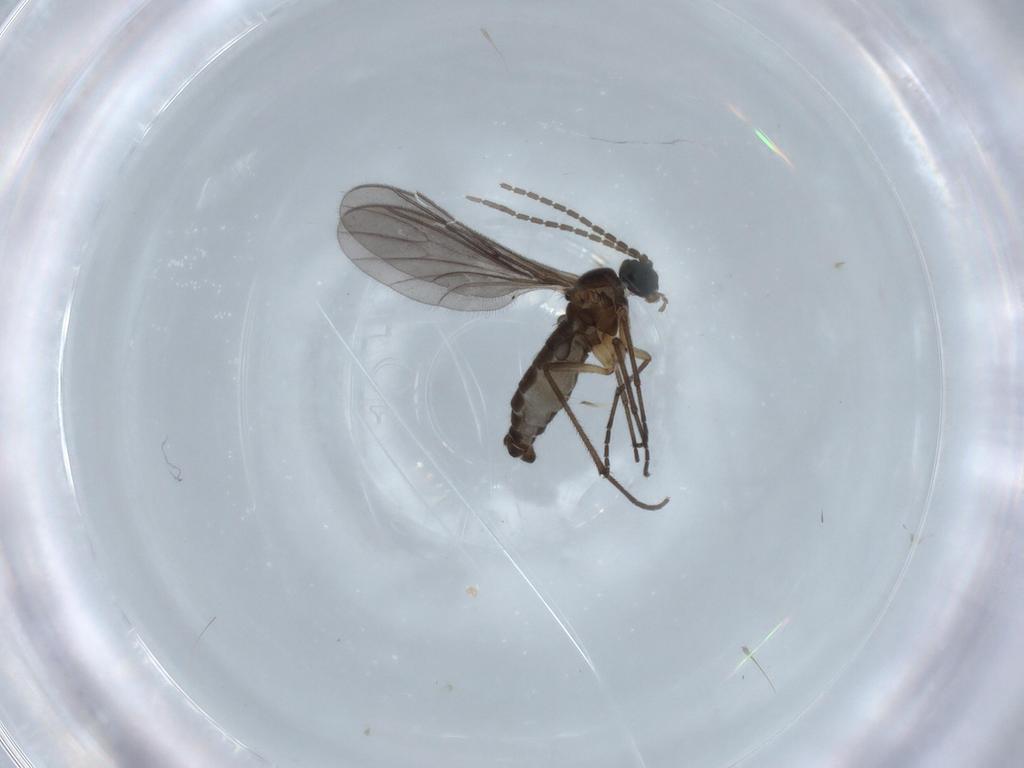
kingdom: Animalia
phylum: Arthropoda
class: Insecta
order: Diptera
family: Sciaridae
